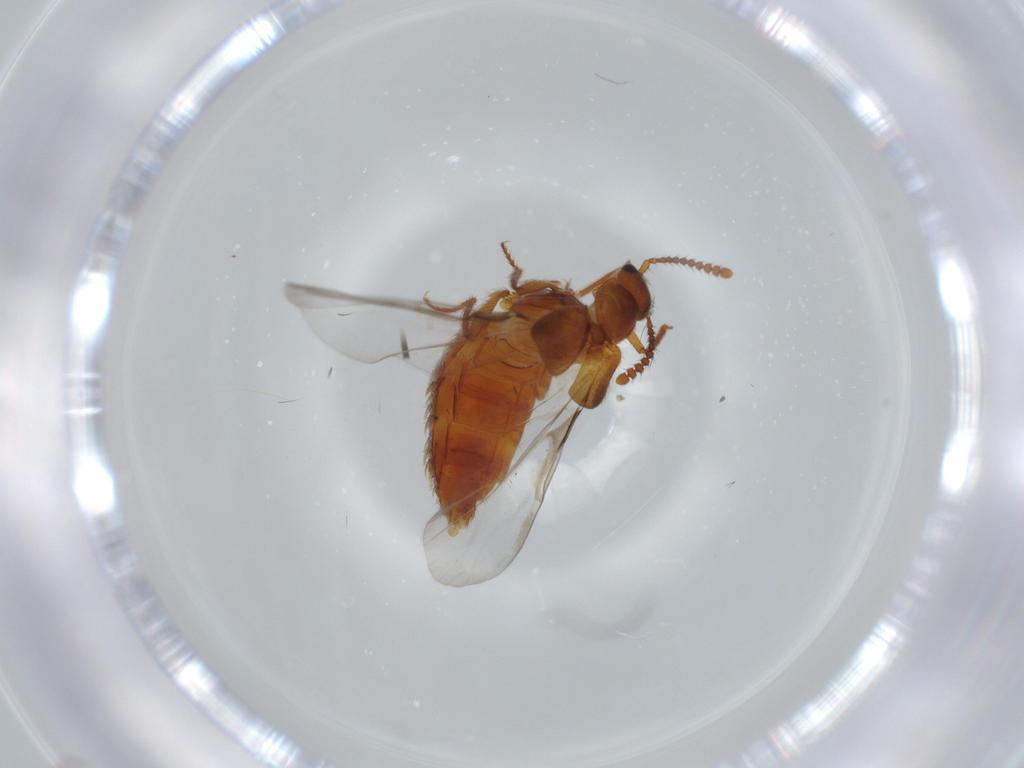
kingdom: Animalia
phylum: Arthropoda
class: Insecta
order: Coleoptera
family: Staphylinidae
